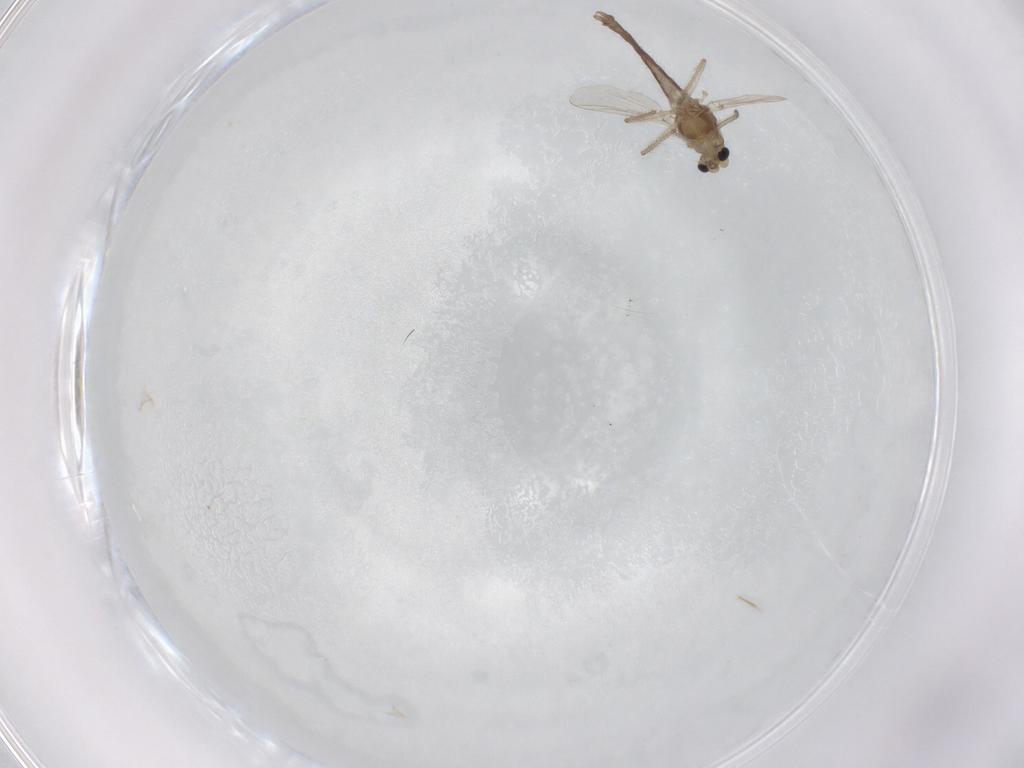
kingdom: Animalia
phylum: Arthropoda
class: Insecta
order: Diptera
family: Chironomidae
